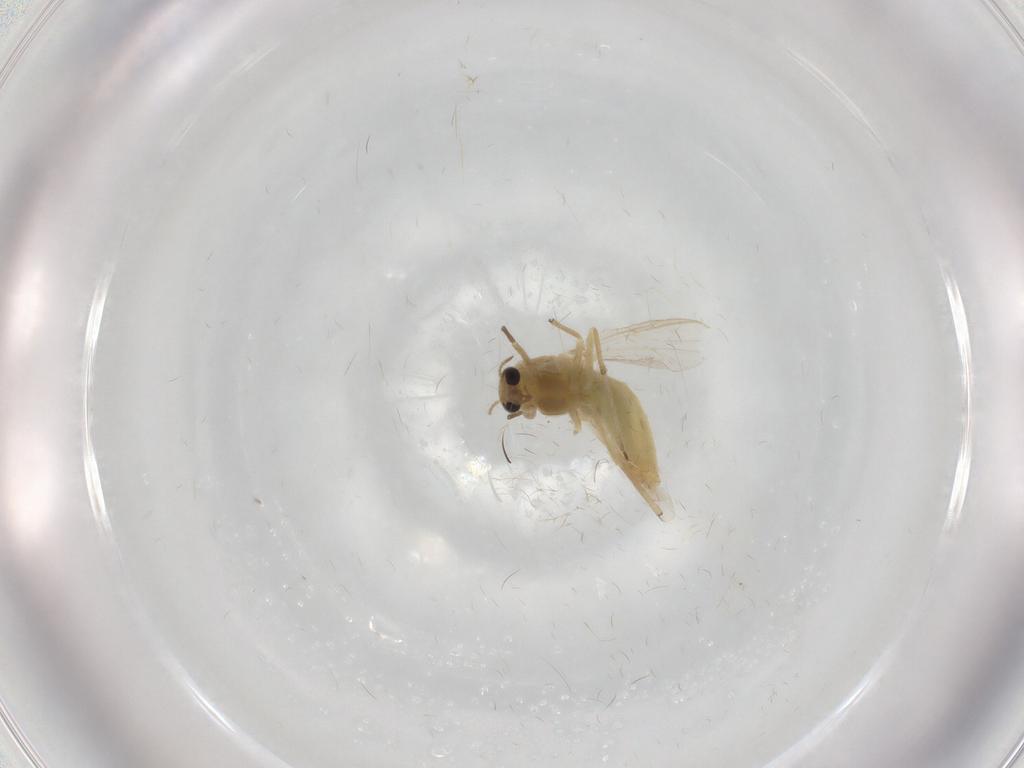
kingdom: Animalia
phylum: Arthropoda
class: Insecta
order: Diptera
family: Chironomidae
